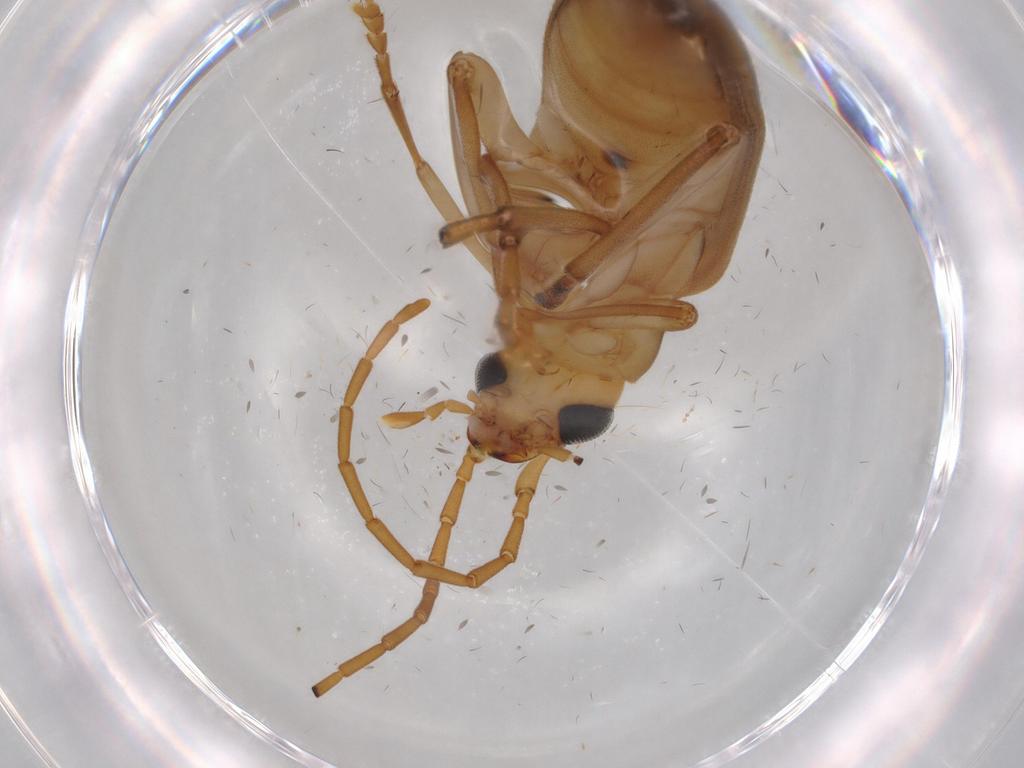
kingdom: Animalia
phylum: Arthropoda
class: Insecta
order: Coleoptera
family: Oedemeridae
